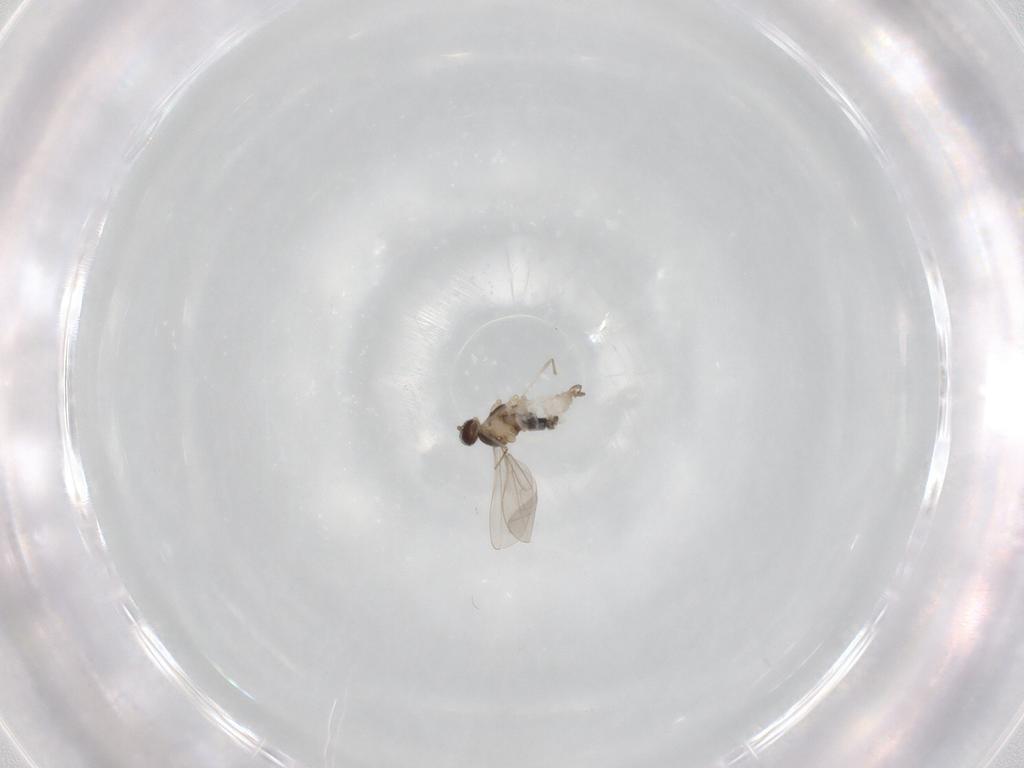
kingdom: Animalia
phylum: Arthropoda
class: Insecta
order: Diptera
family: Cecidomyiidae
